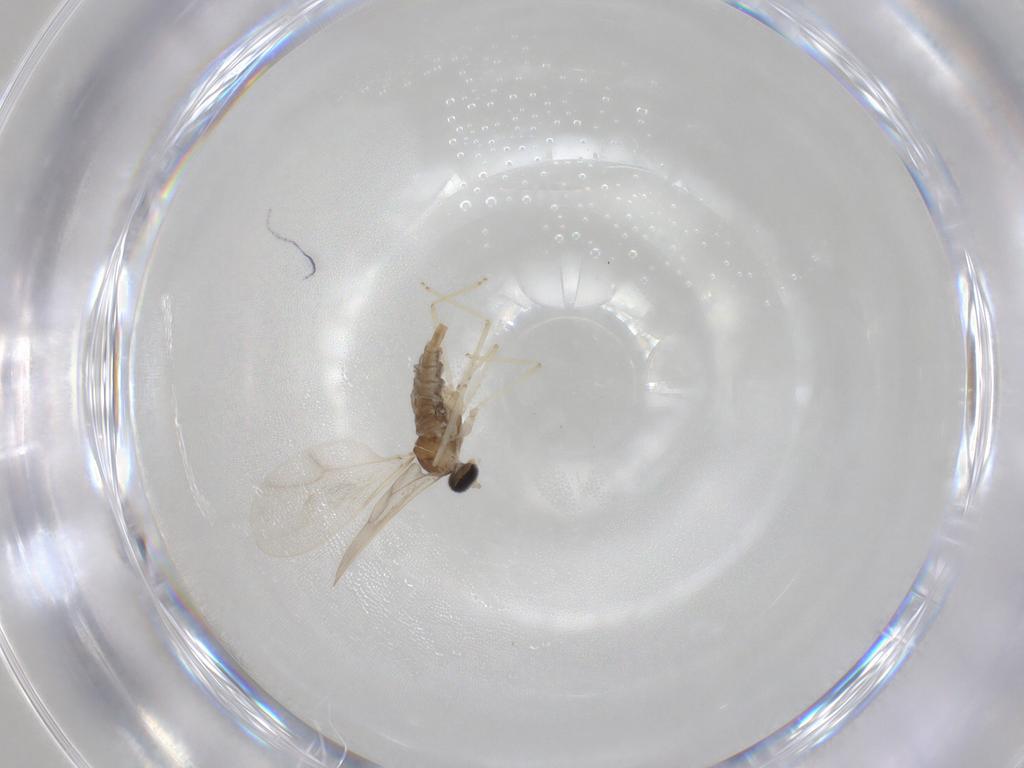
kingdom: Animalia
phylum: Arthropoda
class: Insecta
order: Diptera
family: Cecidomyiidae
